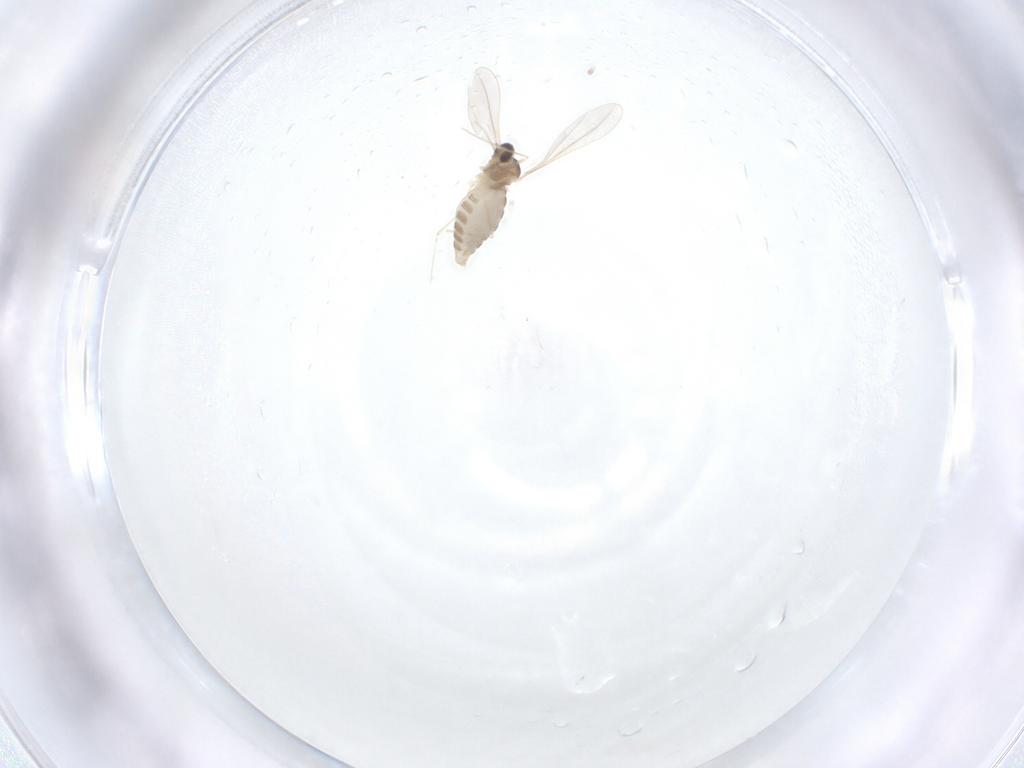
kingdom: Animalia
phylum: Arthropoda
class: Insecta
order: Diptera
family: Cecidomyiidae
